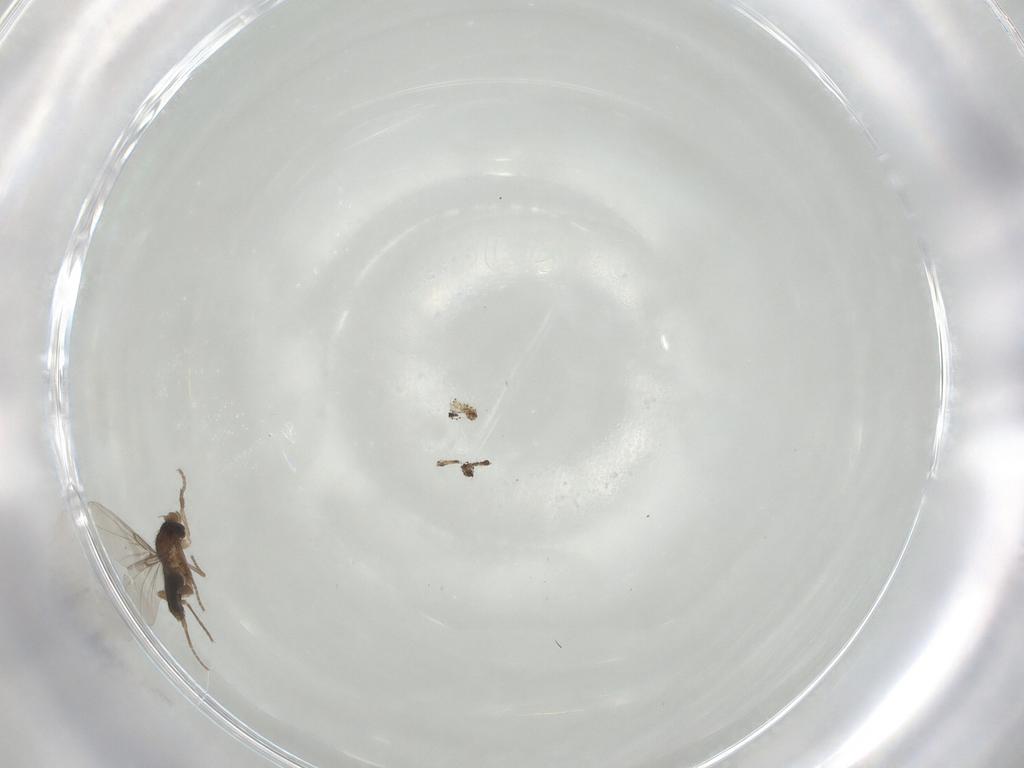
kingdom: Animalia
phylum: Arthropoda
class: Insecta
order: Diptera
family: Phoridae
